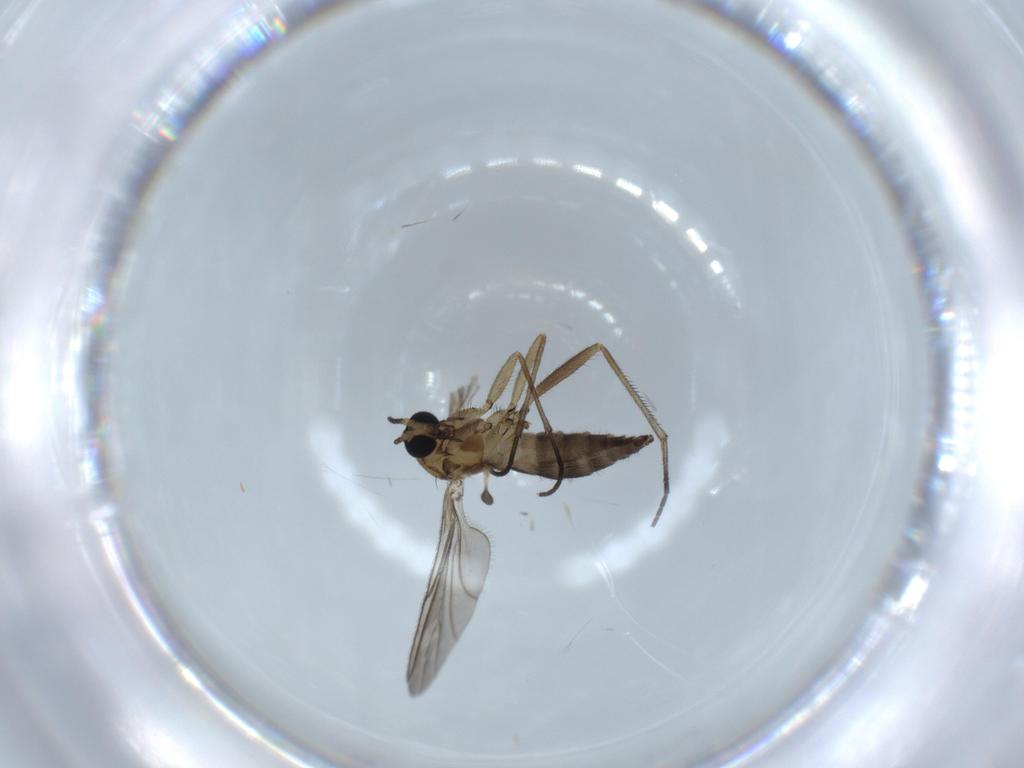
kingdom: Animalia
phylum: Arthropoda
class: Insecta
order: Diptera
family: Sciaridae
